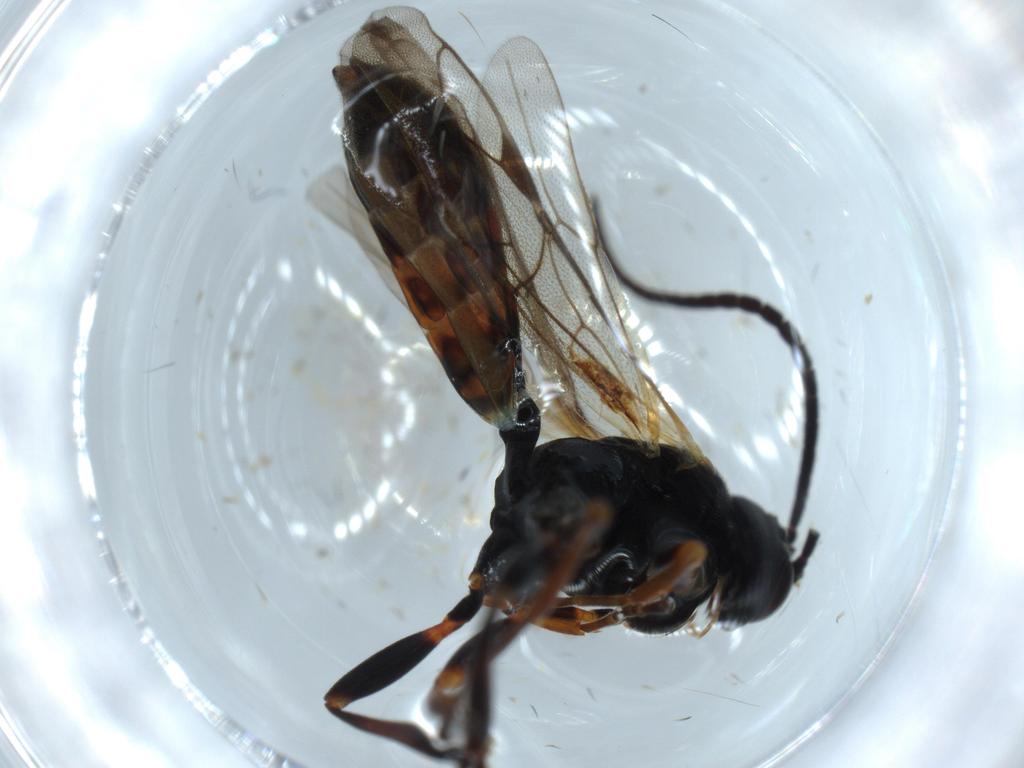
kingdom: Animalia
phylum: Arthropoda
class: Insecta
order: Hymenoptera
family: Ichneumonidae
